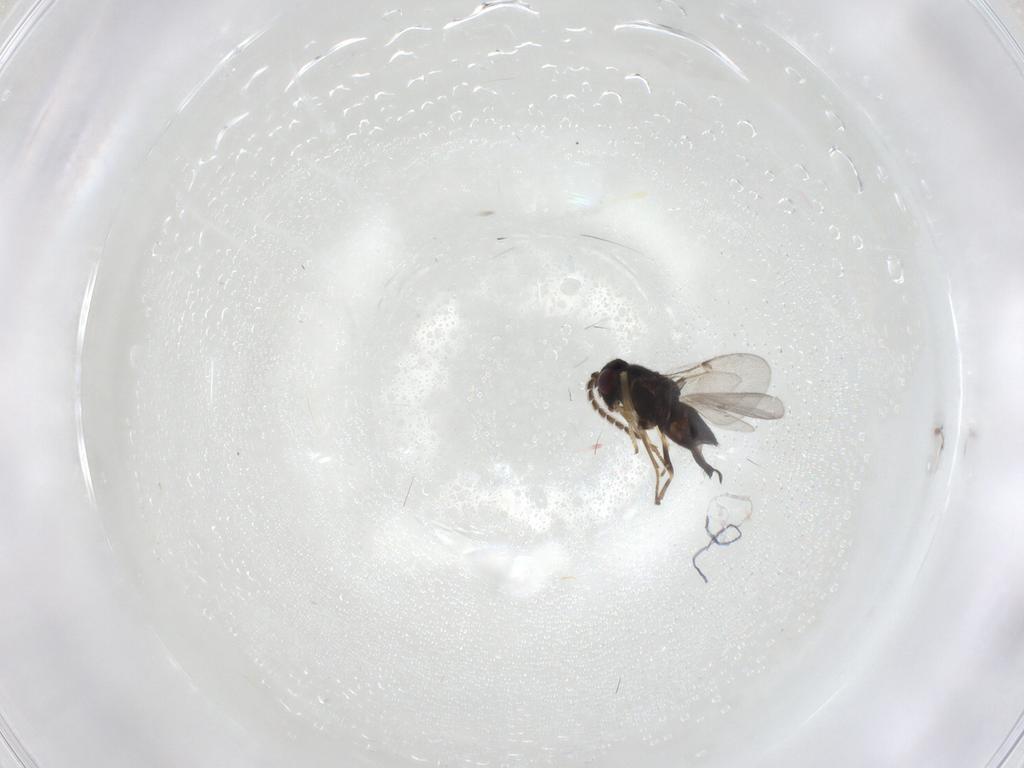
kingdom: Animalia
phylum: Arthropoda
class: Insecta
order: Hymenoptera
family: Encyrtidae
